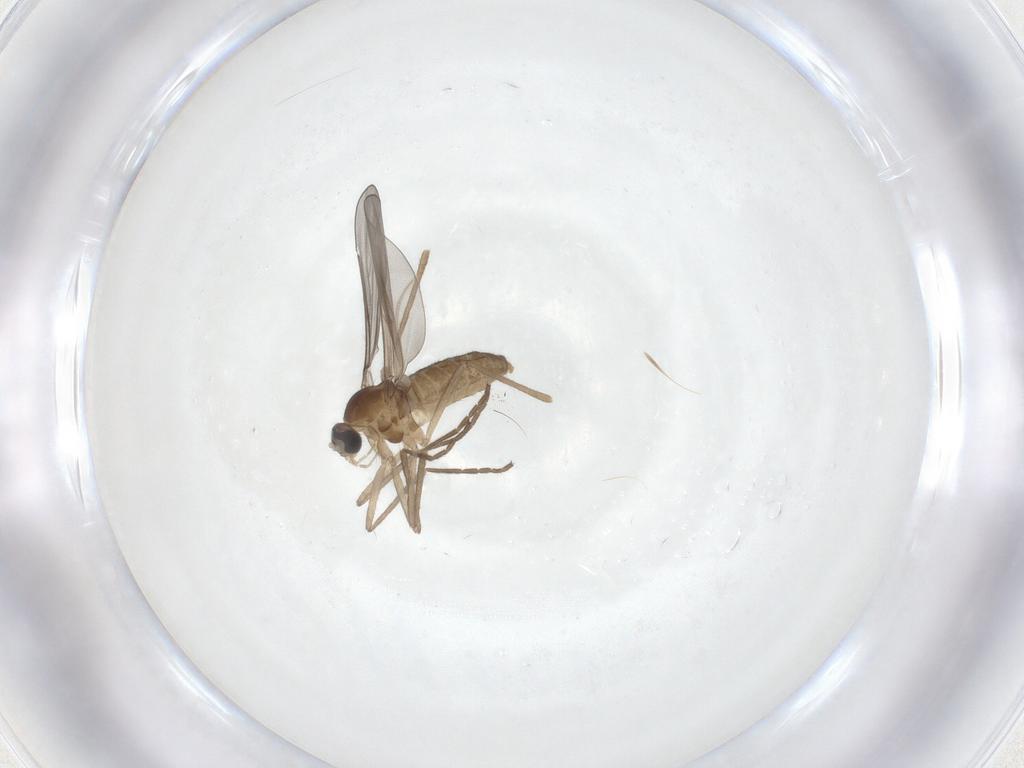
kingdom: Animalia
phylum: Arthropoda
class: Insecta
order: Diptera
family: Cecidomyiidae
